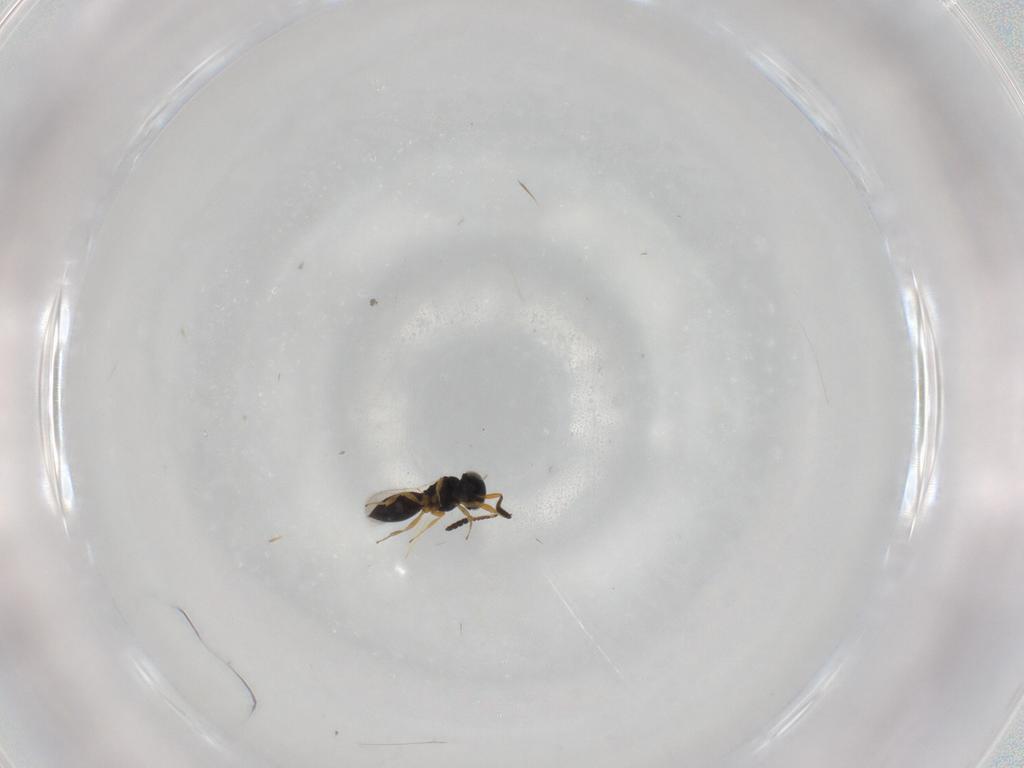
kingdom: Animalia
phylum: Arthropoda
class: Insecta
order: Hymenoptera
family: Scelionidae
